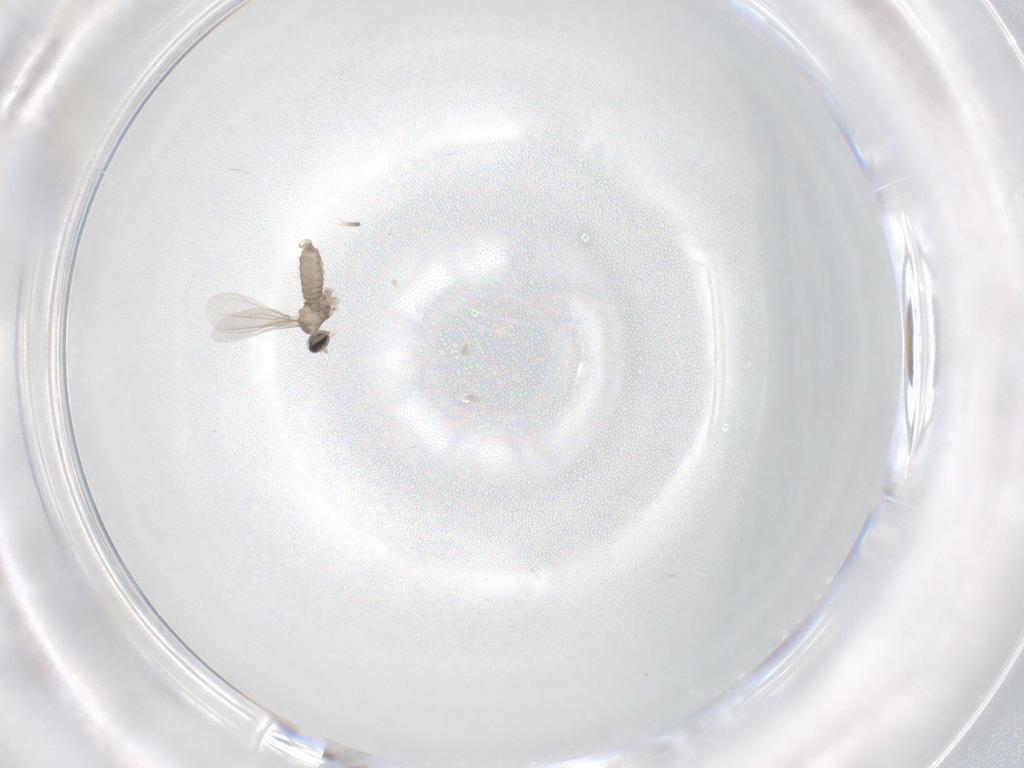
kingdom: Animalia
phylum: Arthropoda
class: Insecta
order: Diptera
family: Cecidomyiidae
